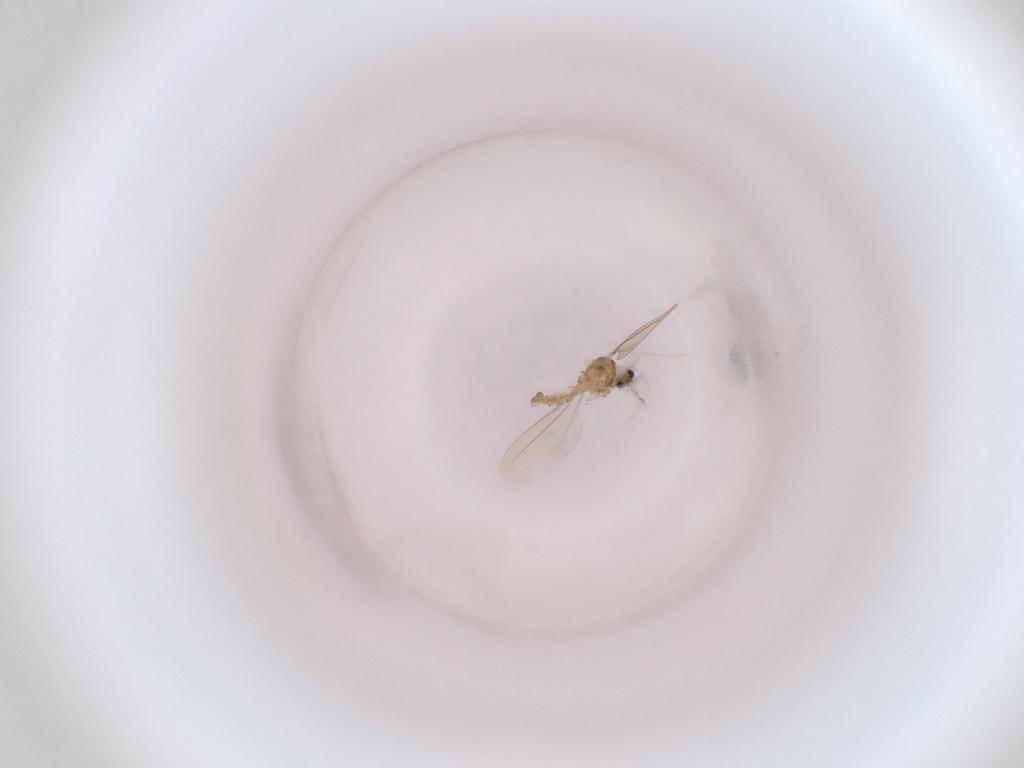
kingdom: Animalia
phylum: Arthropoda
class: Insecta
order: Diptera
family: Cecidomyiidae
